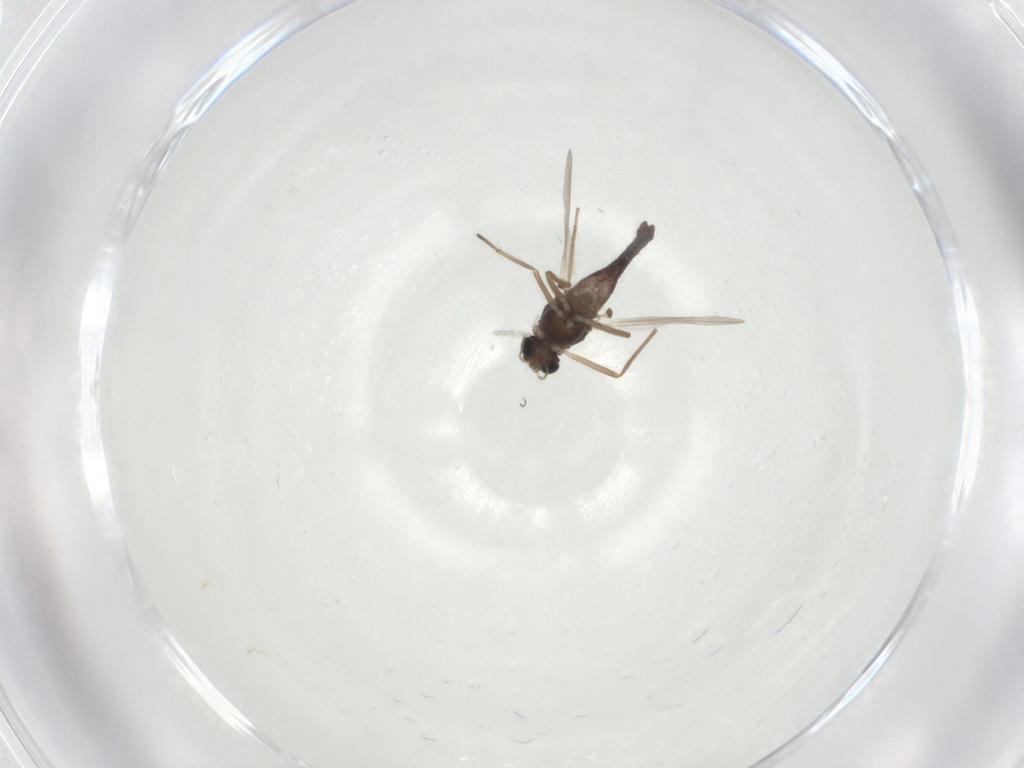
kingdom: Animalia
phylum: Arthropoda
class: Insecta
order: Diptera
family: Chironomidae
